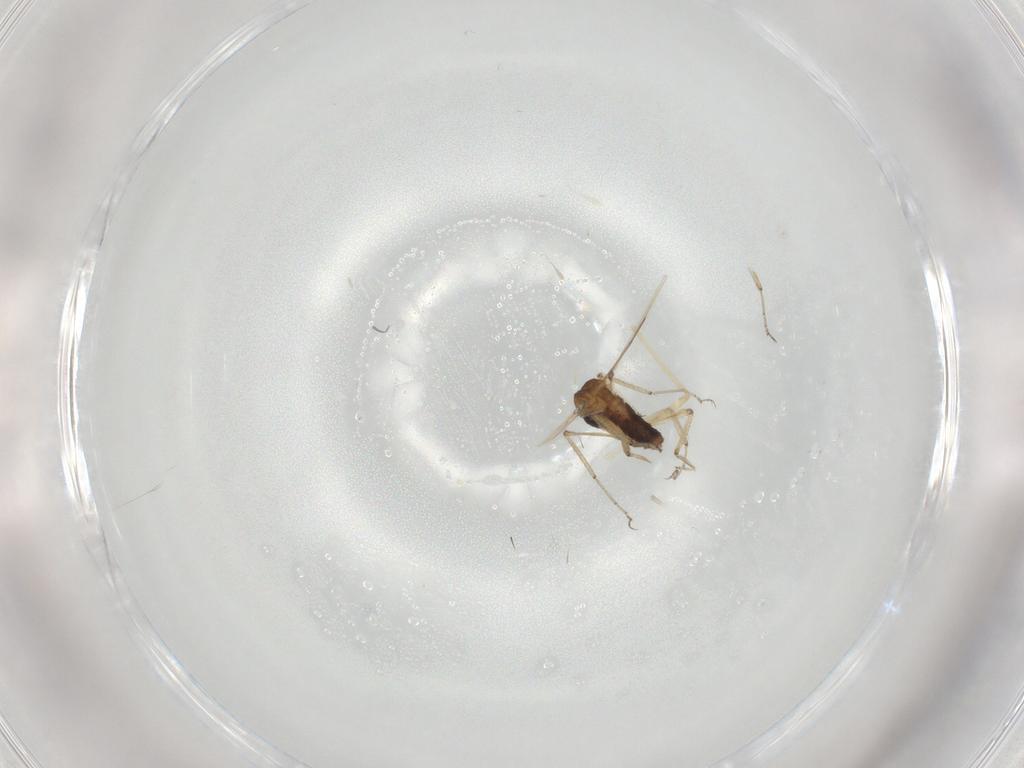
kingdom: Animalia
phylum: Arthropoda
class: Insecta
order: Diptera
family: Ceratopogonidae
